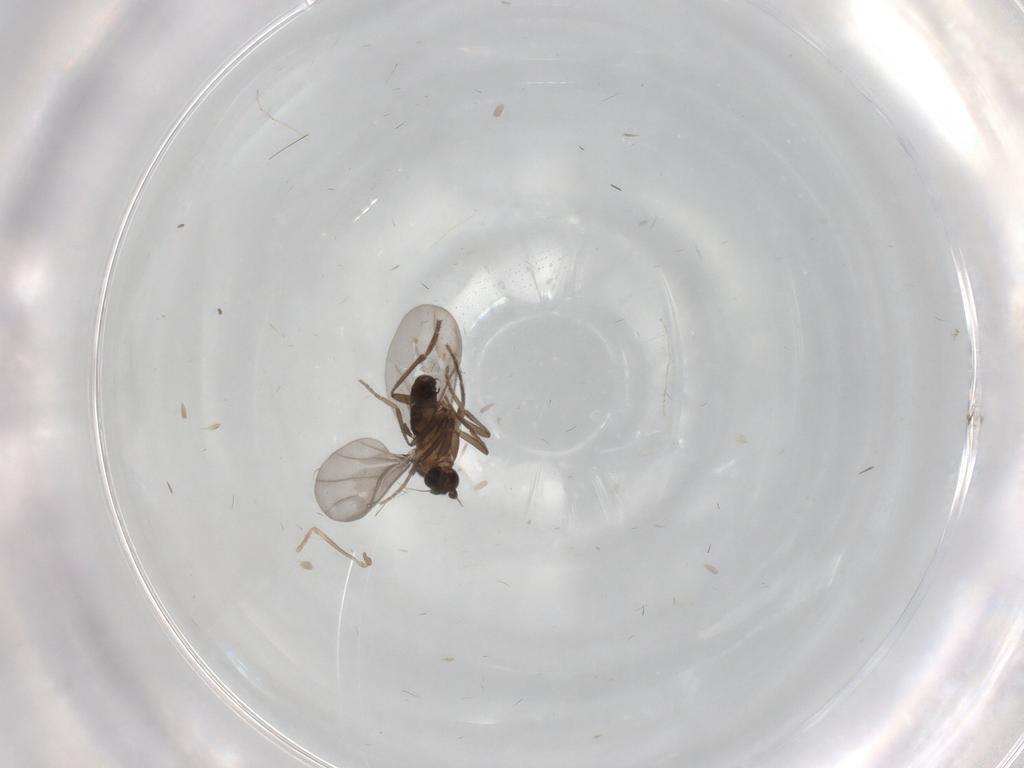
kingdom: Animalia
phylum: Arthropoda
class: Insecta
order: Diptera
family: Phoridae
